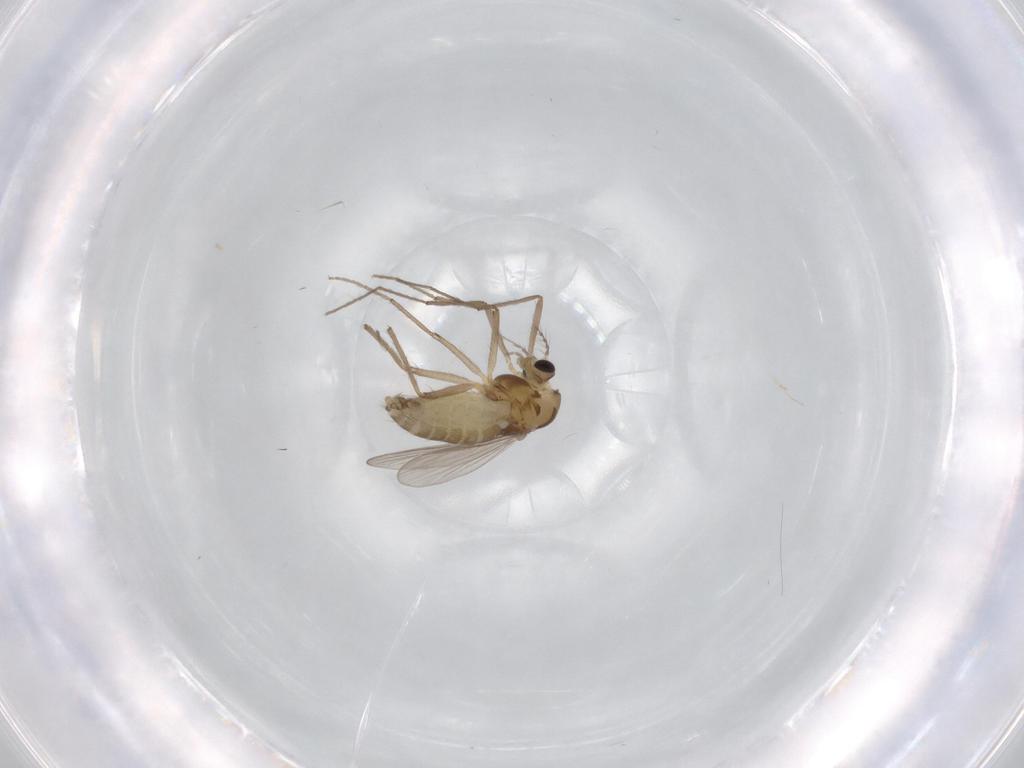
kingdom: Animalia
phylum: Arthropoda
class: Insecta
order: Diptera
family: Chironomidae
